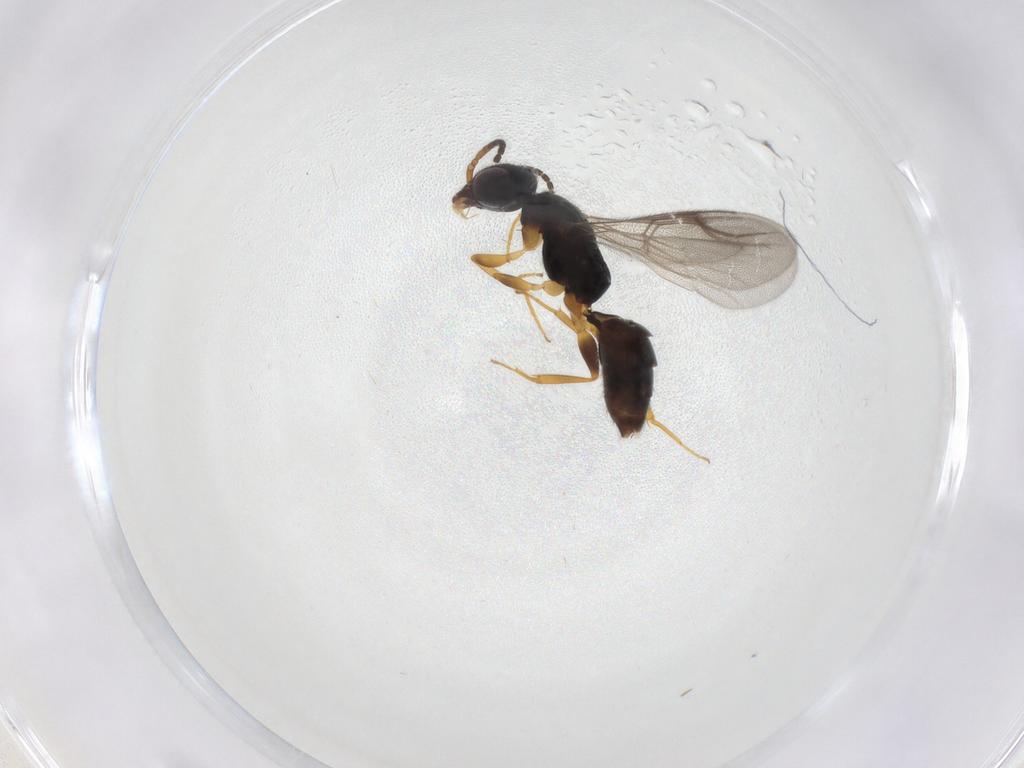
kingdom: Animalia
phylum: Arthropoda
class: Insecta
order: Hymenoptera
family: Bethylidae
